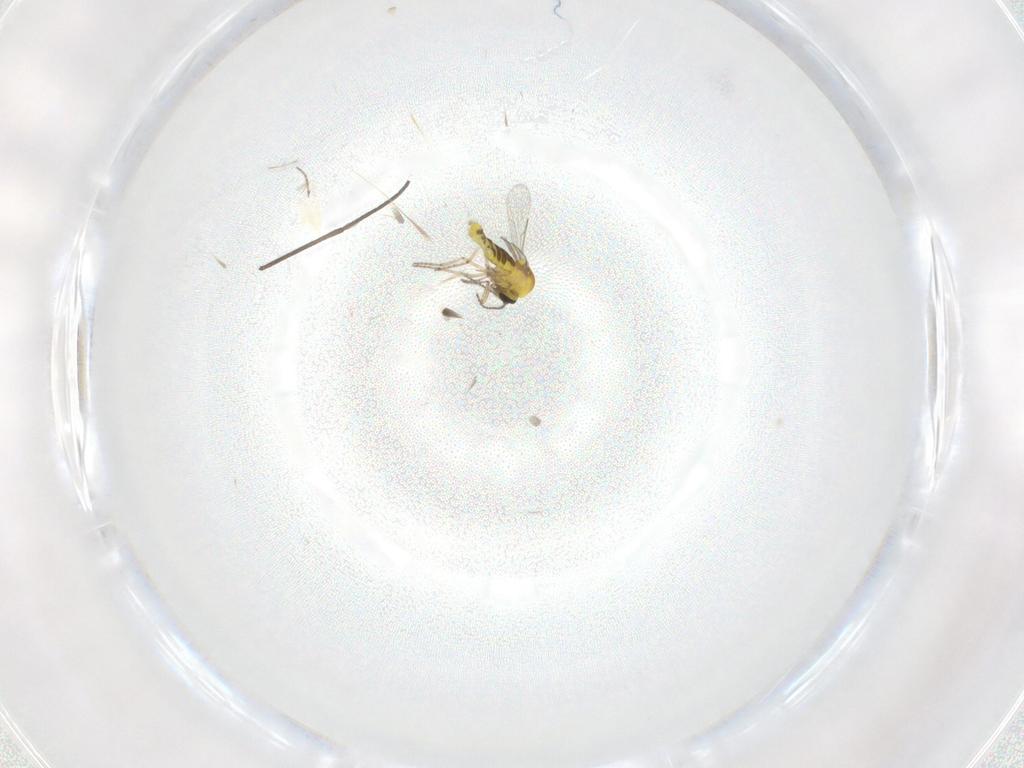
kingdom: Animalia
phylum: Arthropoda
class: Insecta
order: Diptera
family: Ceratopogonidae
